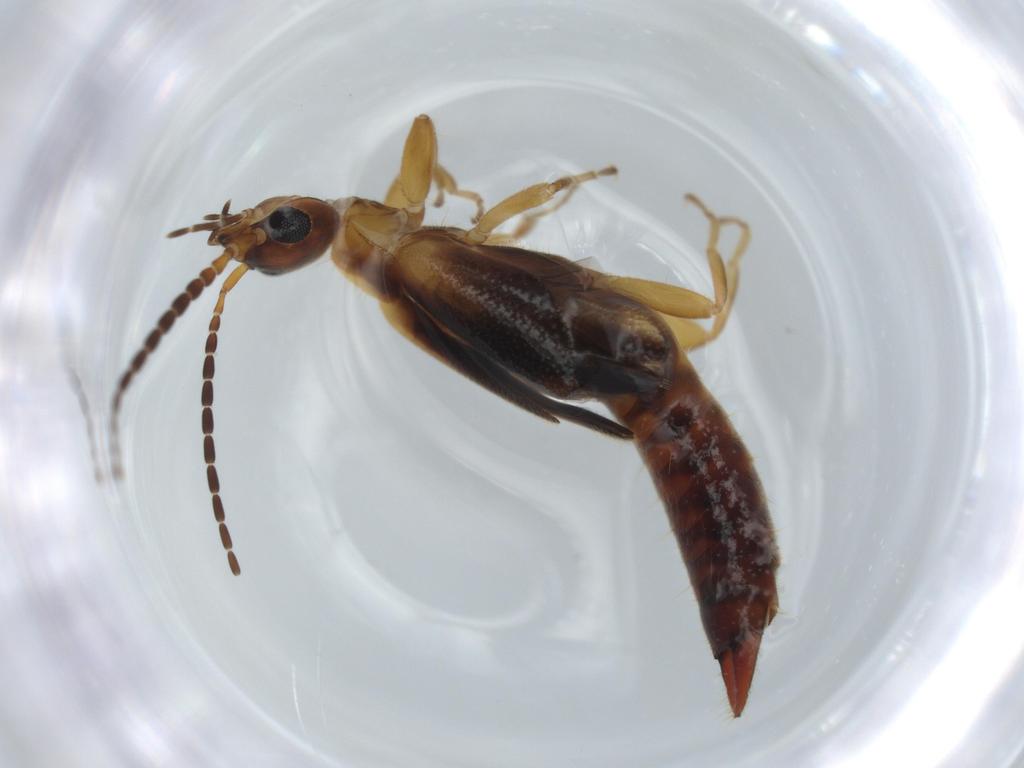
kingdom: Animalia
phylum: Arthropoda
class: Insecta
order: Dermaptera
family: Forficulidae
